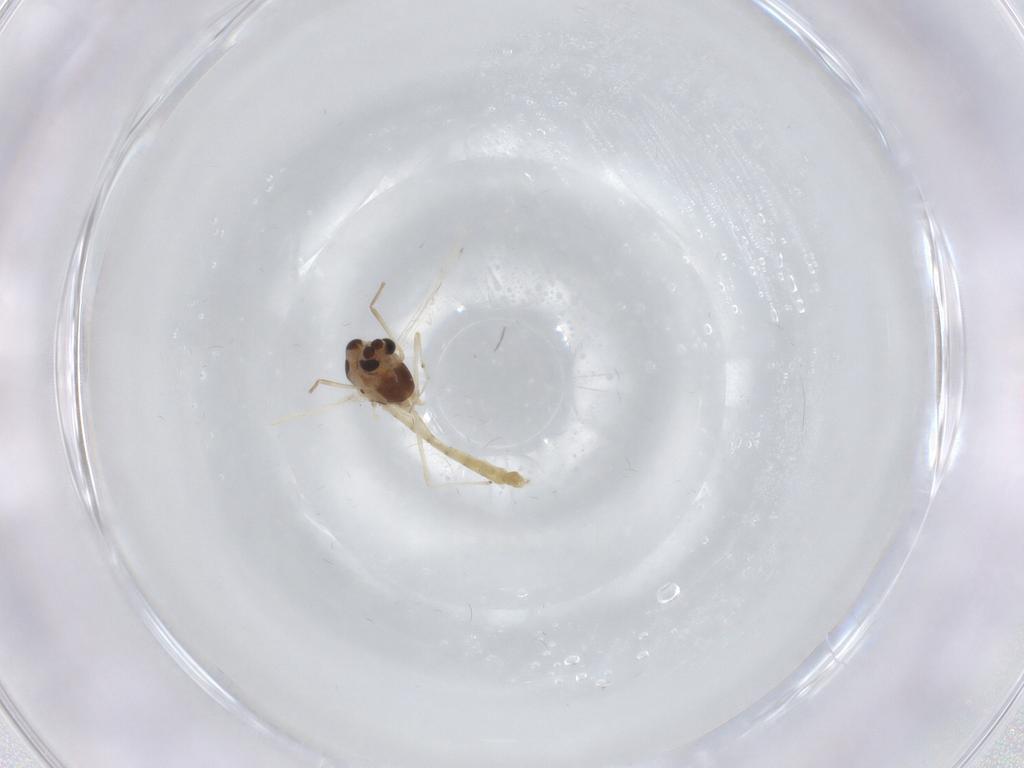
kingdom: Animalia
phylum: Arthropoda
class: Insecta
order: Diptera
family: Chironomidae
